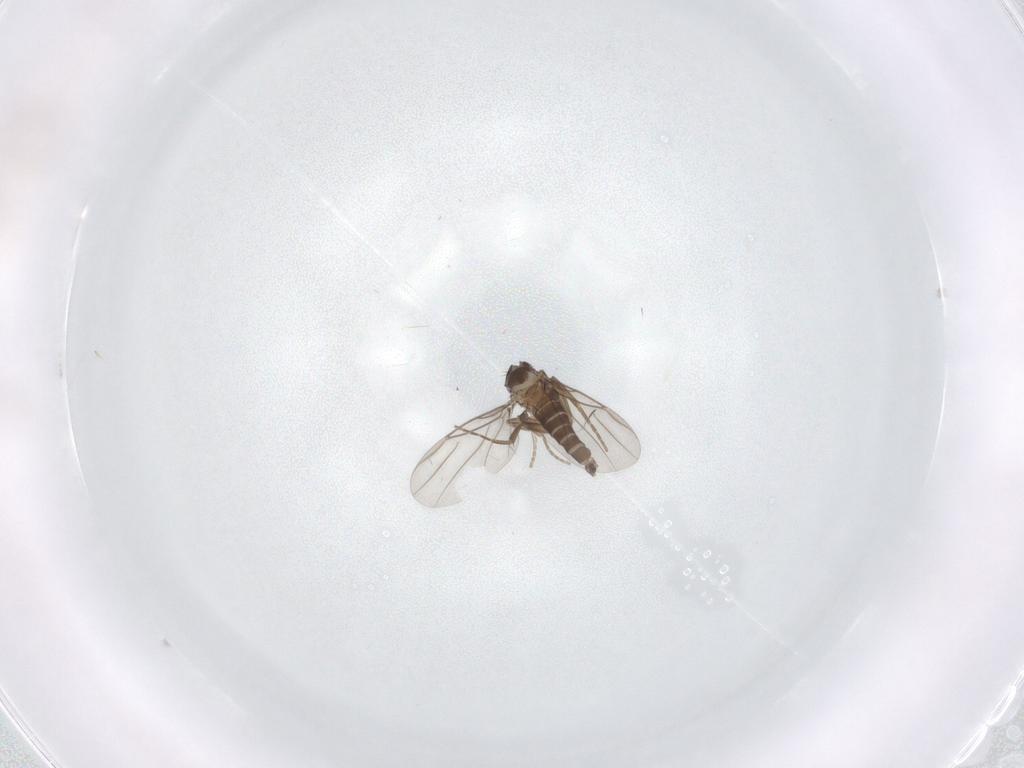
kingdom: Animalia
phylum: Arthropoda
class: Insecta
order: Diptera
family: Phoridae
